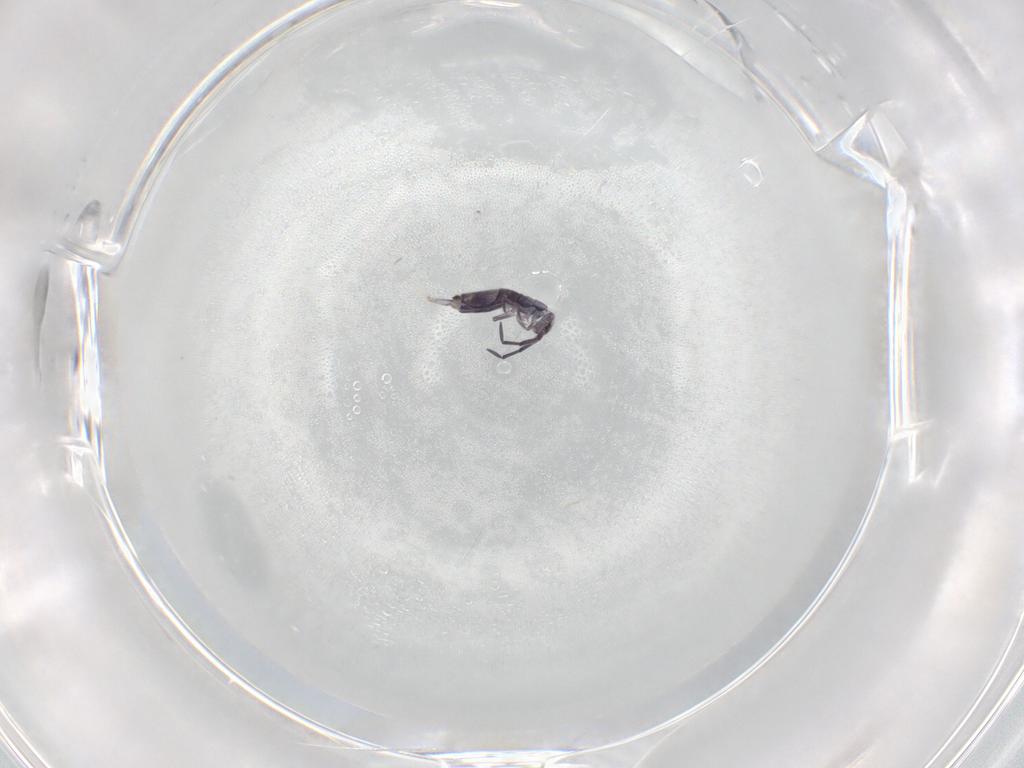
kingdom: Animalia
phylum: Arthropoda
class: Collembola
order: Entomobryomorpha
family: Entomobryidae
